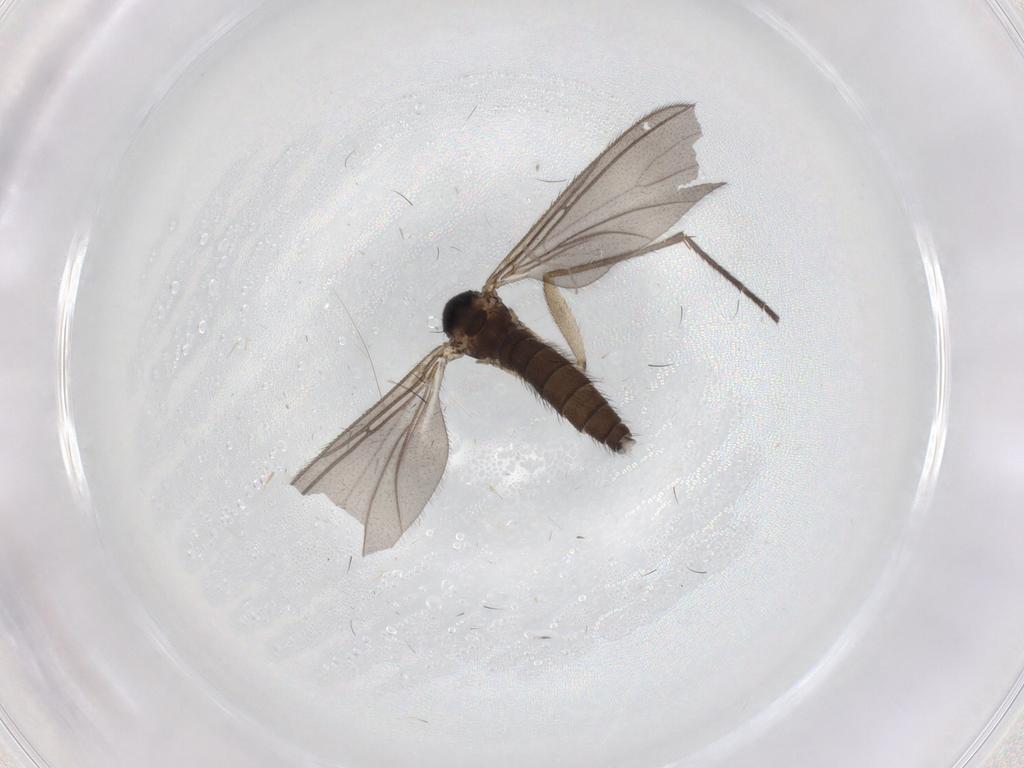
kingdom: Animalia
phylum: Arthropoda
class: Insecta
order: Diptera
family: Sciaridae
